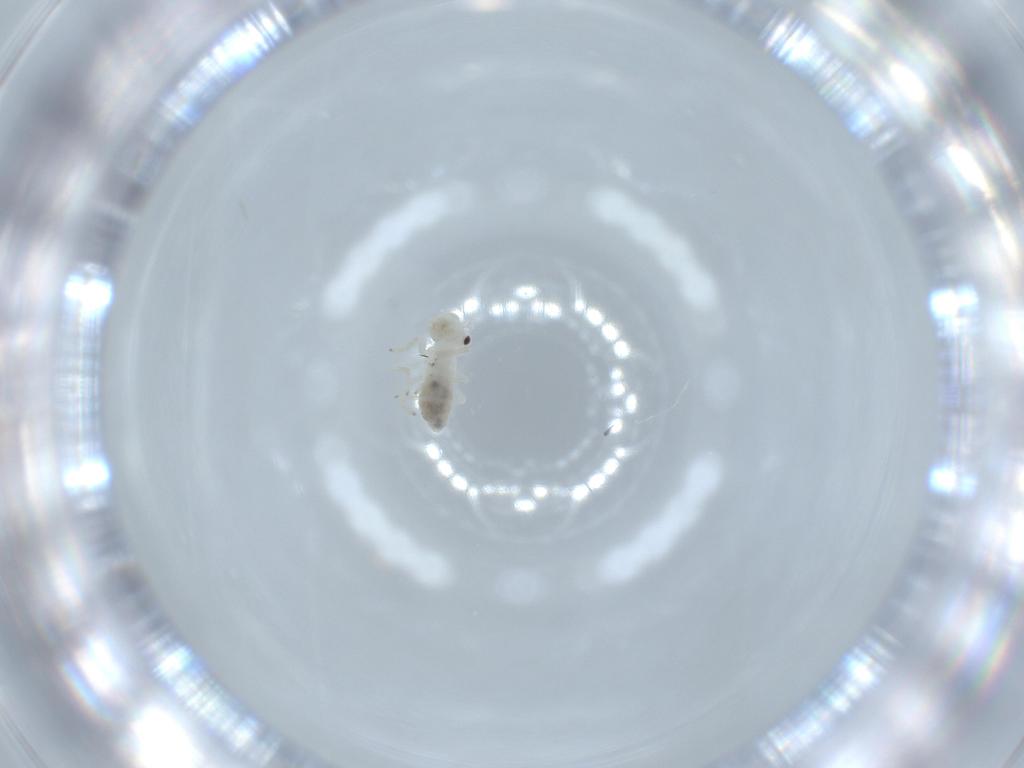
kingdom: Animalia
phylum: Arthropoda
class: Insecta
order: Psocodea
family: Caeciliusidae
